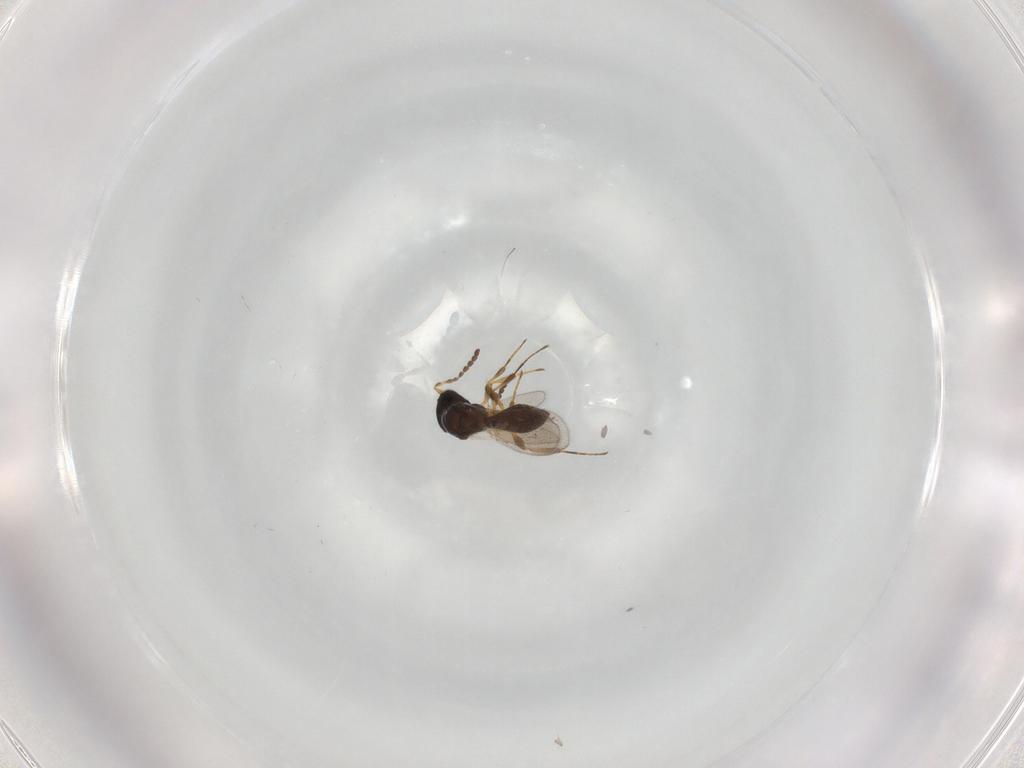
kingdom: Animalia
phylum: Arthropoda
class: Insecta
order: Hymenoptera
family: Platygastridae
